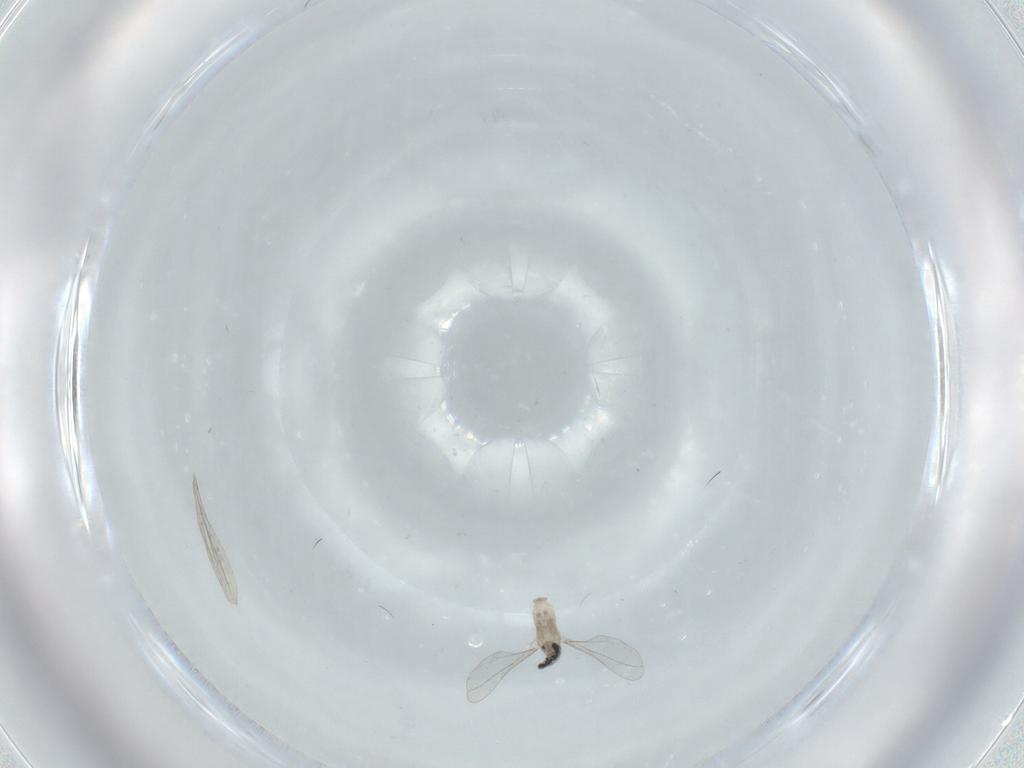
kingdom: Animalia
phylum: Arthropoda
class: Insecta
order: Diptera
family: Cecidomyiidae
